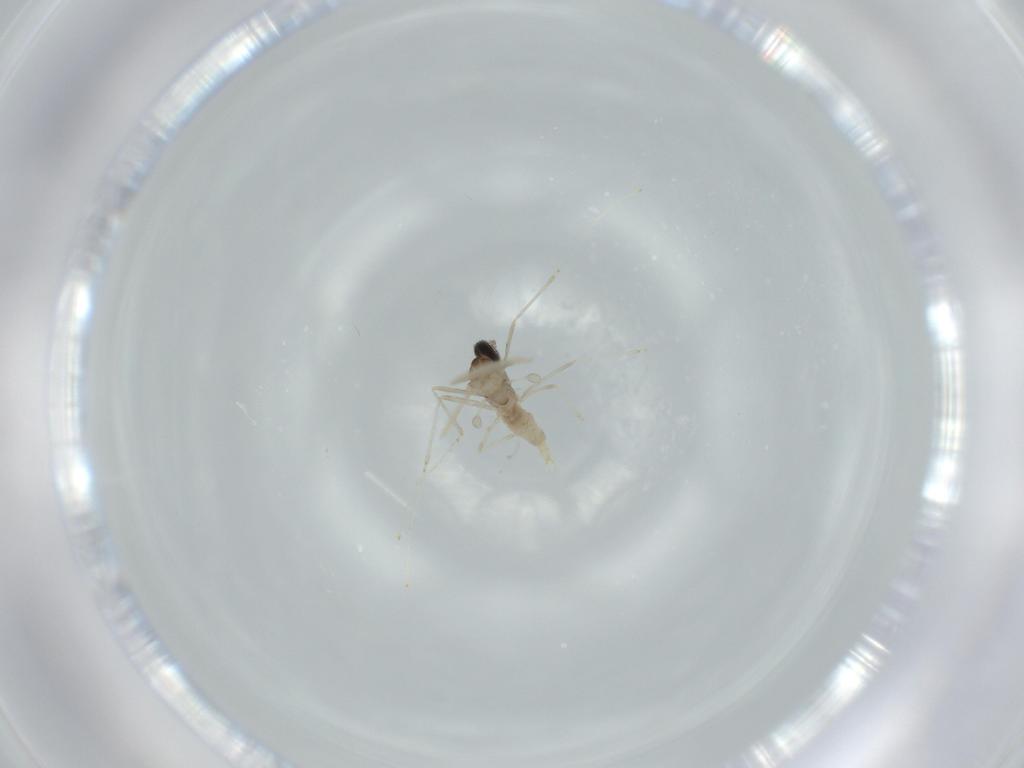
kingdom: Animalia
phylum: Arthropoda
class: Insecta
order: Diptera
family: Cecidomyiidae
